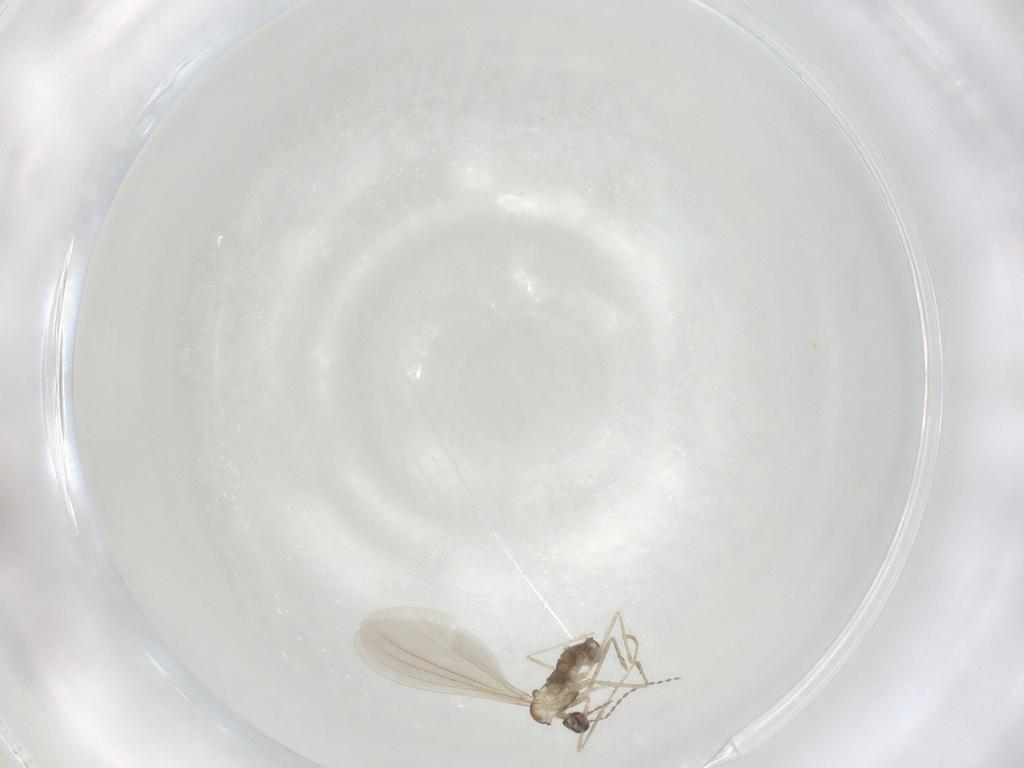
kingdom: Animalia
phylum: Arthropoda
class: Insecta
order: Diptera
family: Cecidomyiidae
